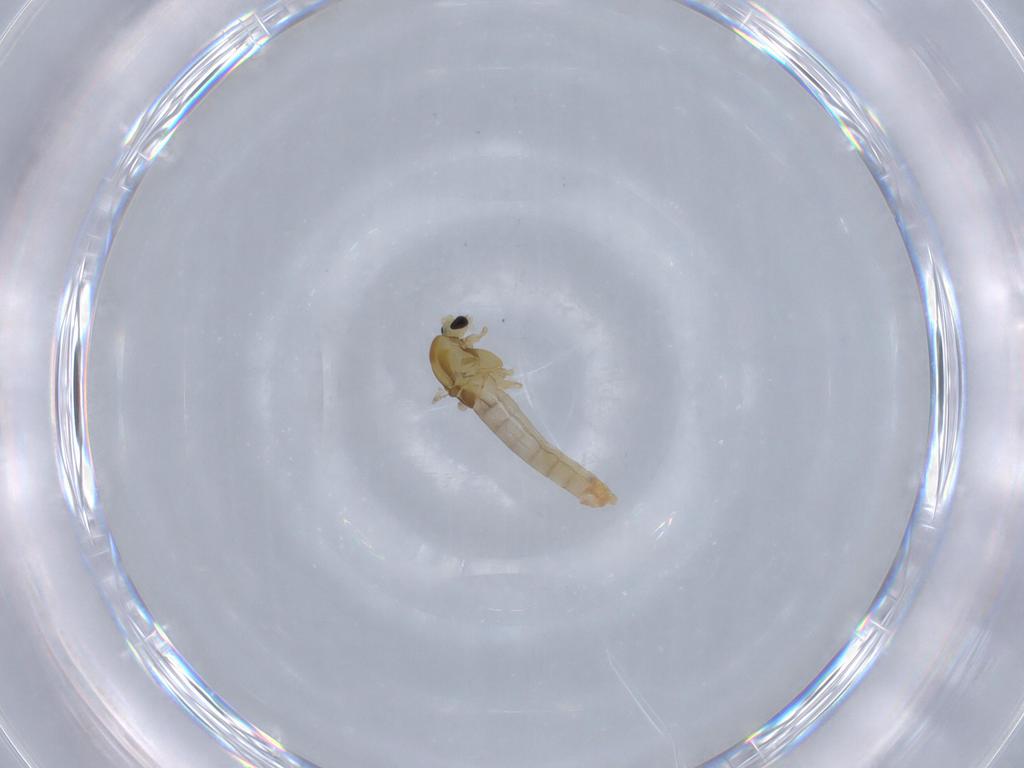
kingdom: Animalia
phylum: Arthropoda
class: Insecta
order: Diptera
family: Chironomidae
